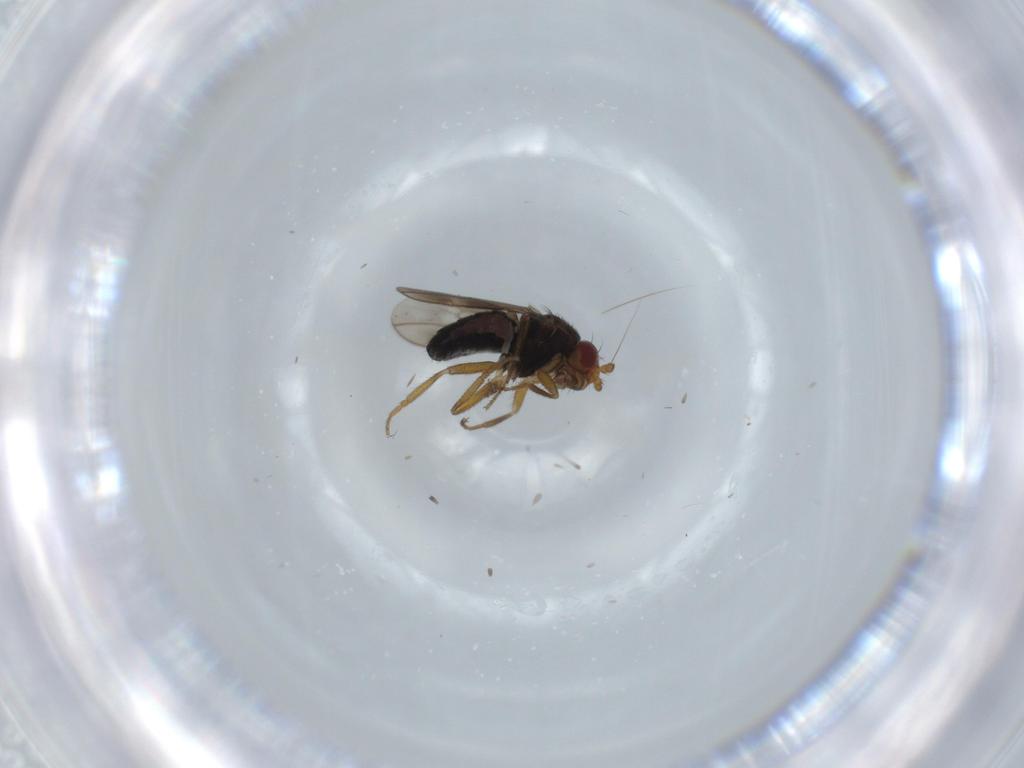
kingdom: Animalia
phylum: Arthropoda
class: Insecta
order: Diptera
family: Sphaeroceridae
